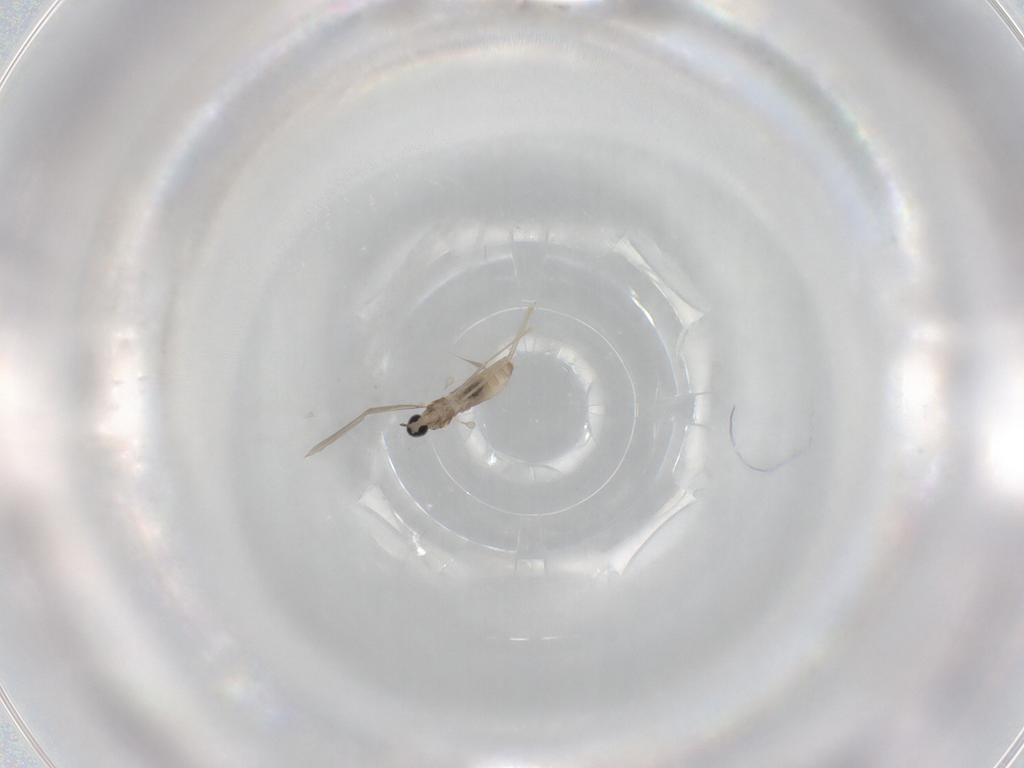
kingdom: Animalia
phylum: Arthropoda
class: Insecta
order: Diptera
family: Cecidomyiidae
